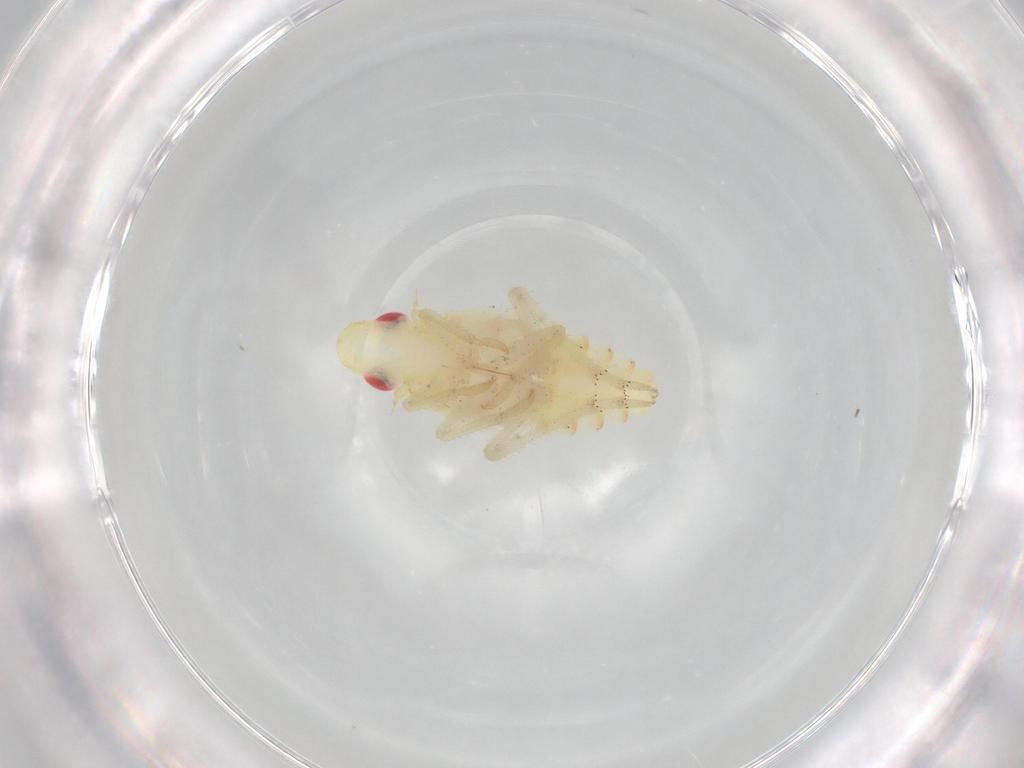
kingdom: Animalia
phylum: Arthropoda
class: Insecta
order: Hemiptera
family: Tropiduchidae
